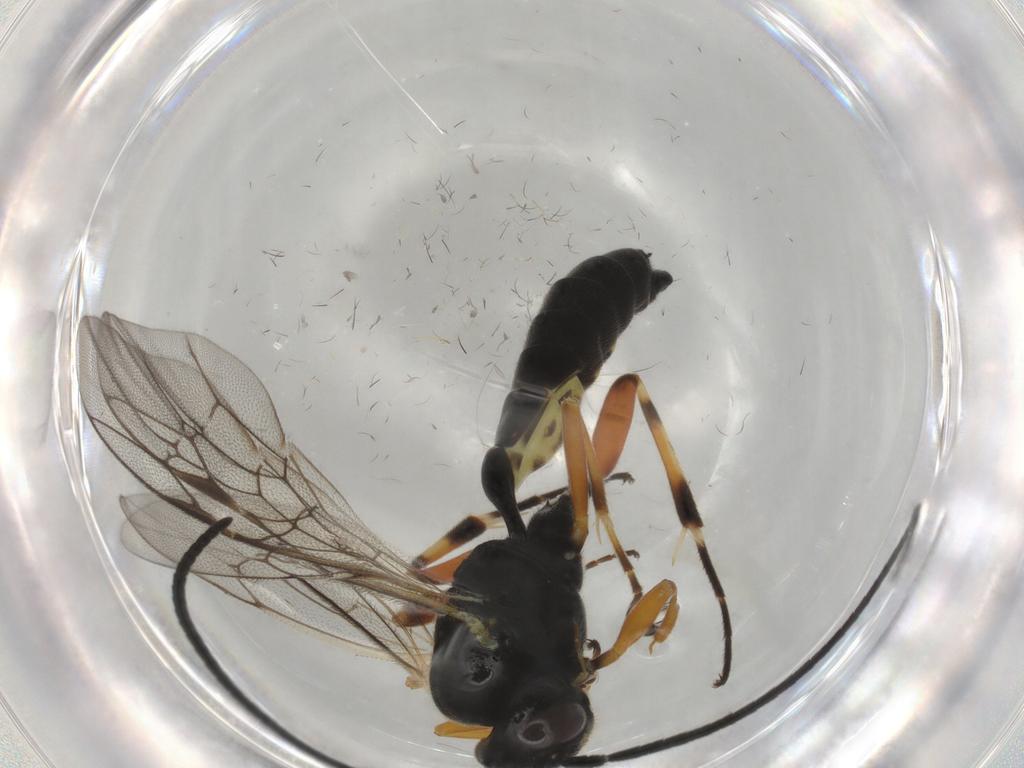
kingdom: Animalia
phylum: Arthropoda
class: Insecta
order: Hymenoptera
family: Ichneumonidae
